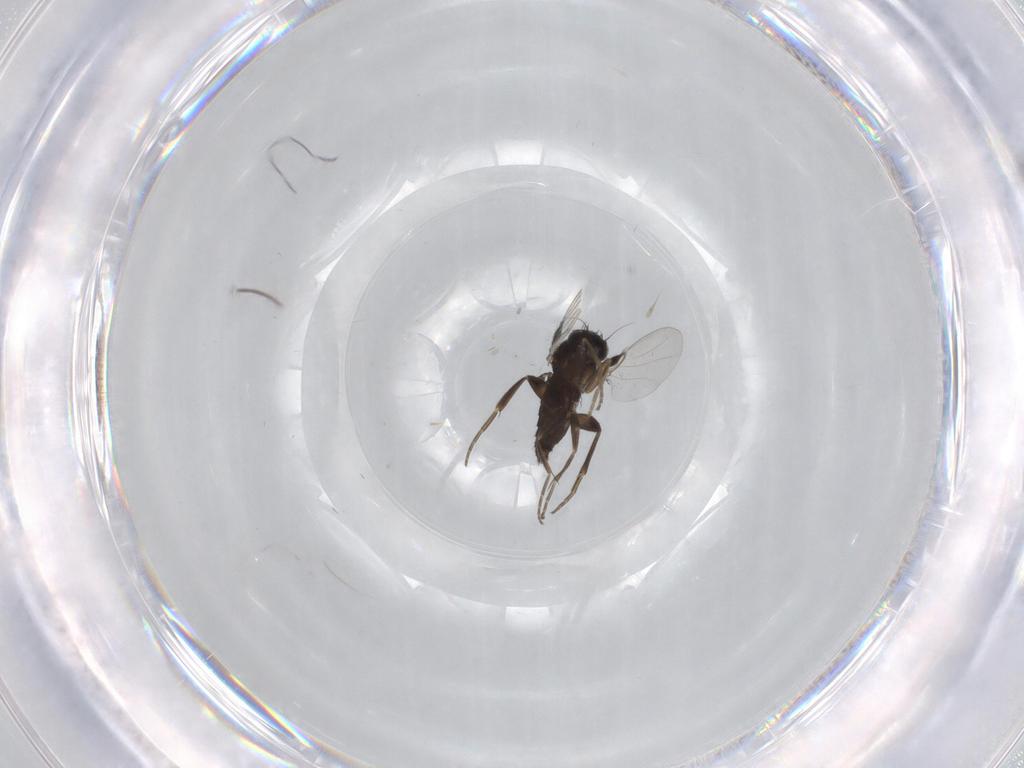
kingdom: Animalia
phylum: Arthropoda
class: Insecta
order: Diptera
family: Phoridae
